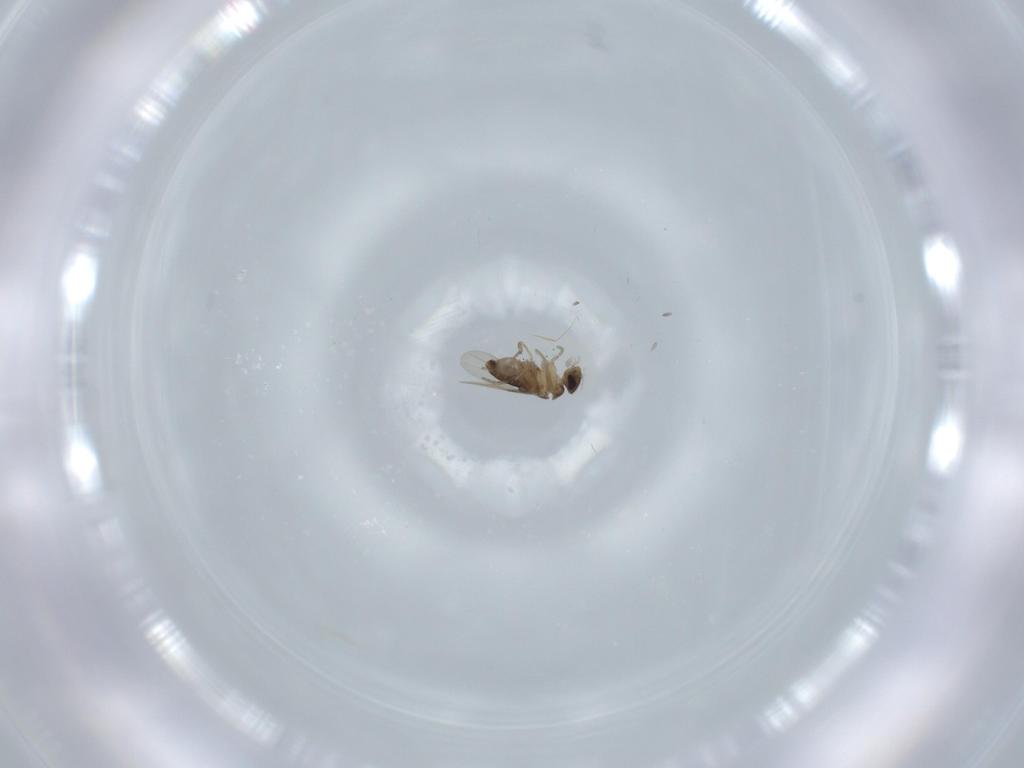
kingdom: Animalia
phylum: Arthropoda
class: Insecta
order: Diptera
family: Phoridae
